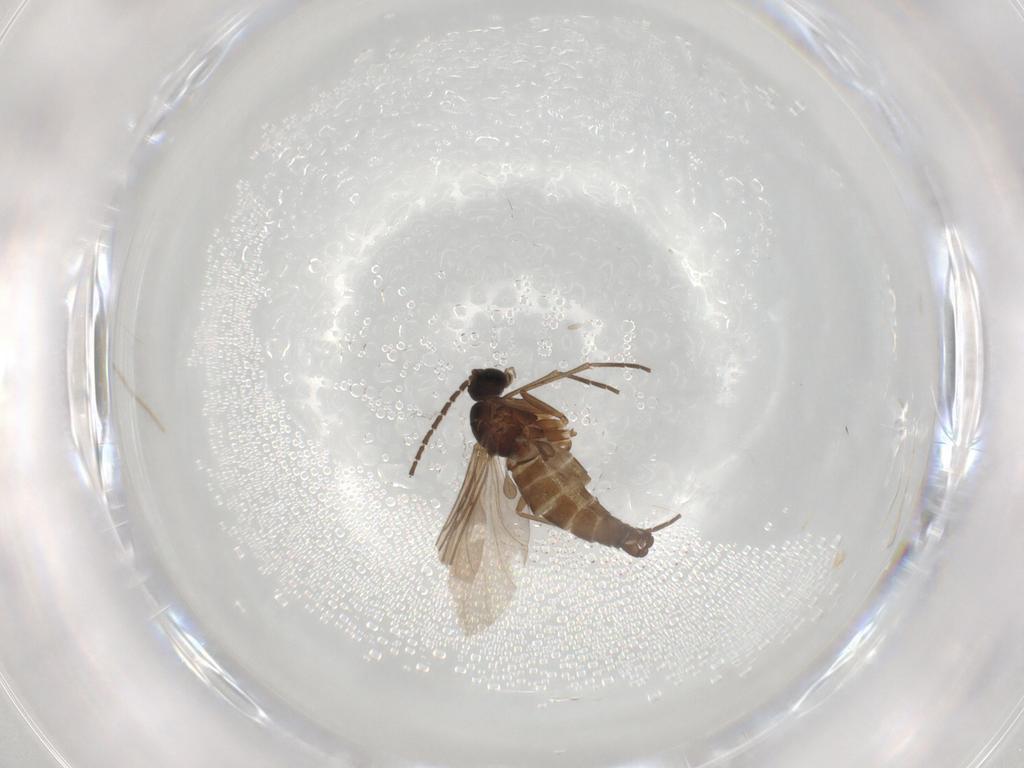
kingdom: Animalia
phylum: Arthropoda
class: Insecta
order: Diptera
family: Sciaridae
